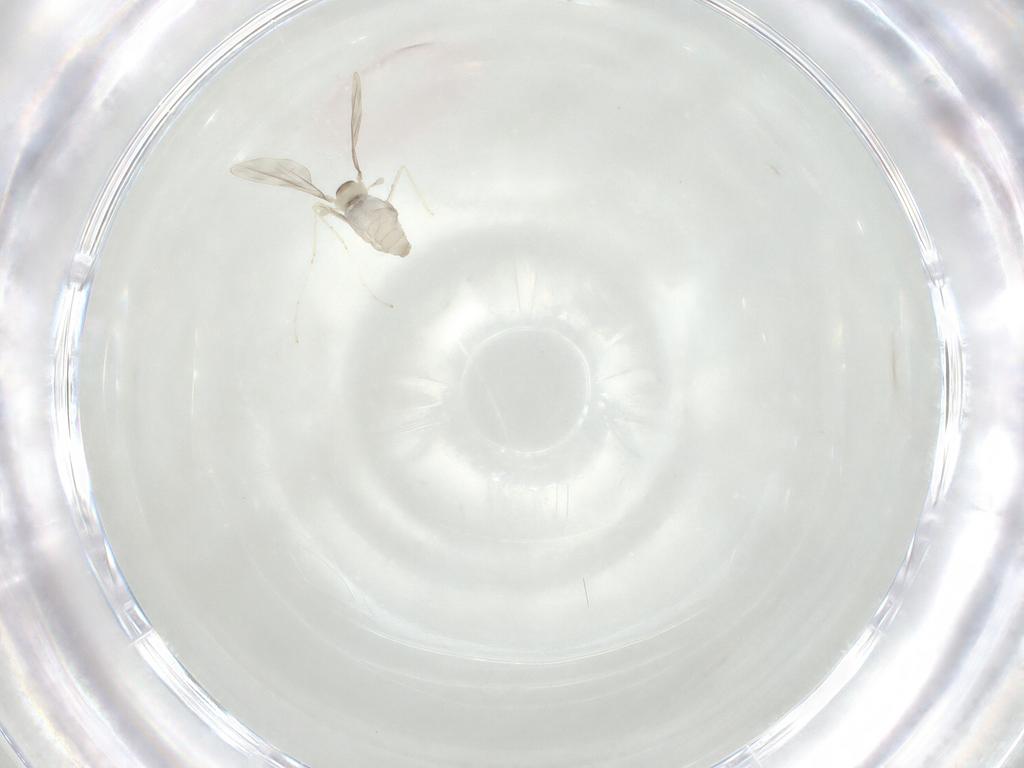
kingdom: Animalia
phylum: Arthropoda
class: Insecta
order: Diptera
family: Cecidomyiidae
